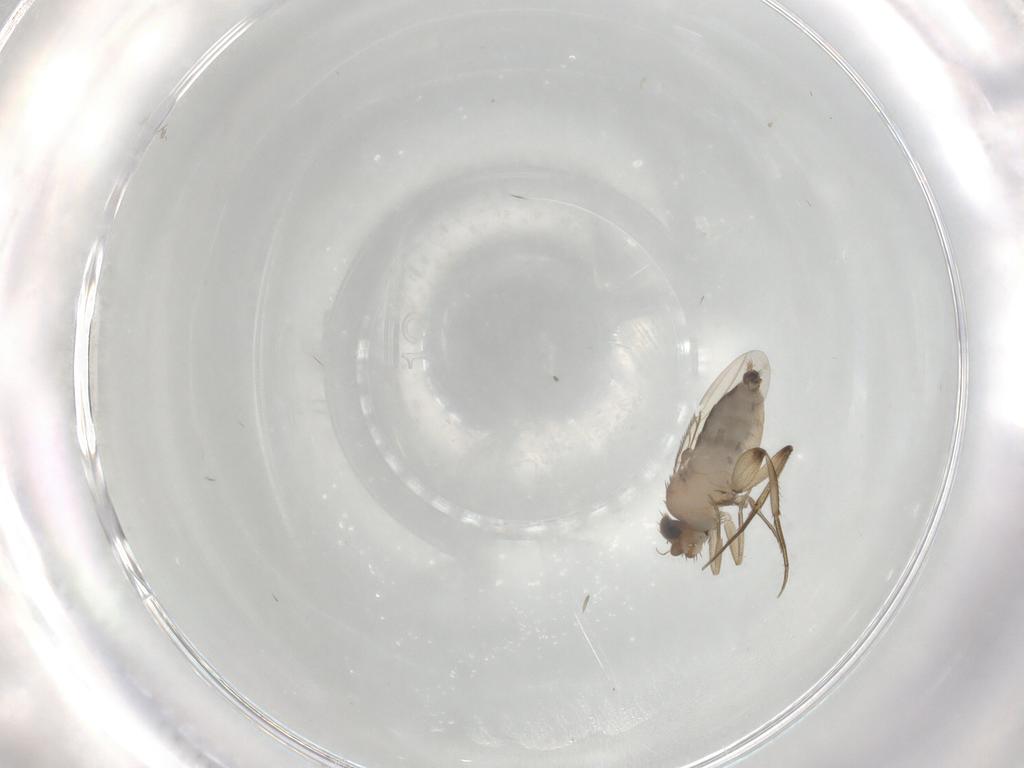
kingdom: Animalia
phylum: Arthropoda
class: Insecta
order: Diptera
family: Phoridae
